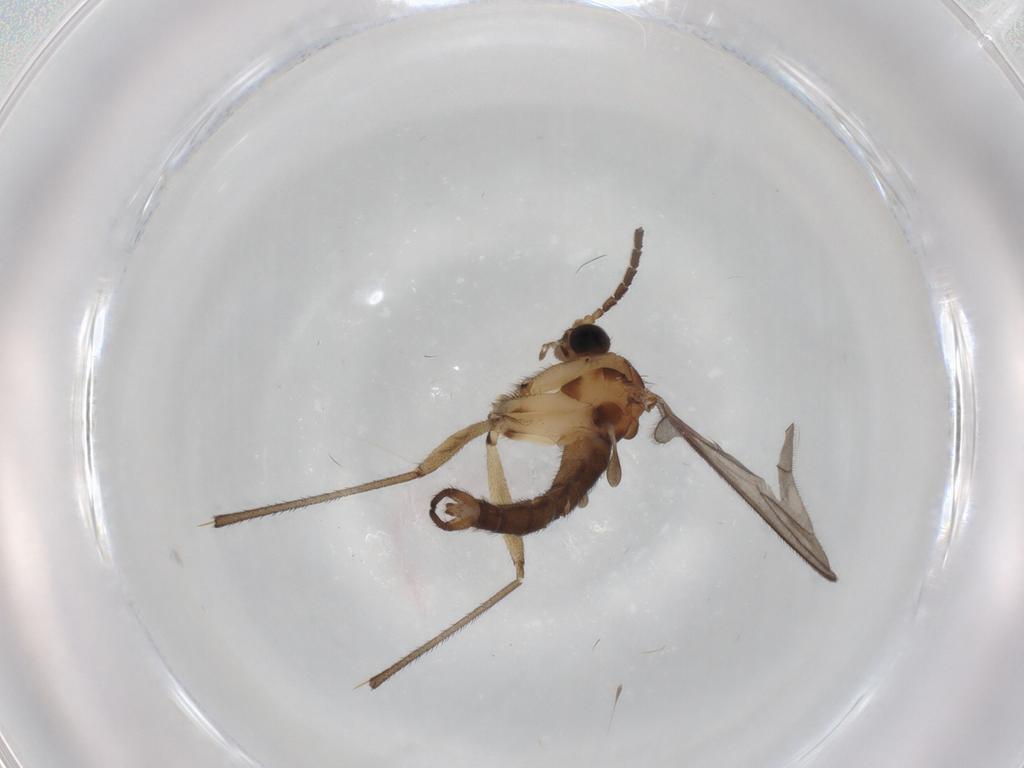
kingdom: Animalia
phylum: Arthropoda
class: Insecta
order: Diptera
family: Sciaridae
